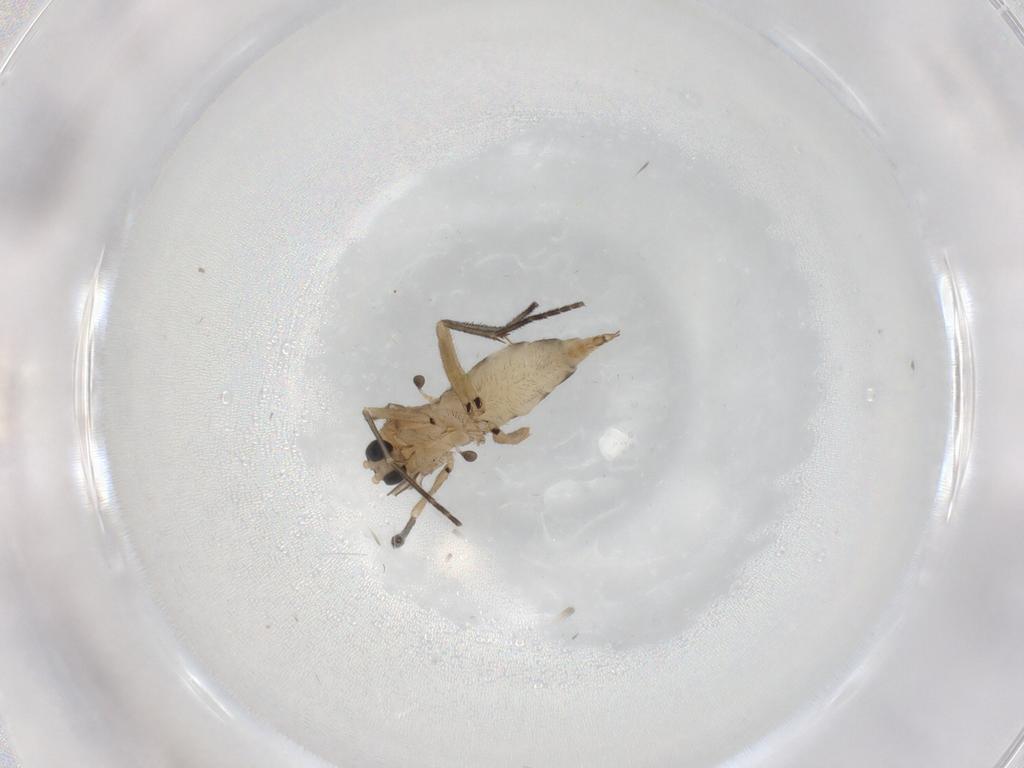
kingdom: Animalia
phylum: Arthropoda
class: Insecta
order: Diptera
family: Sciaridae
